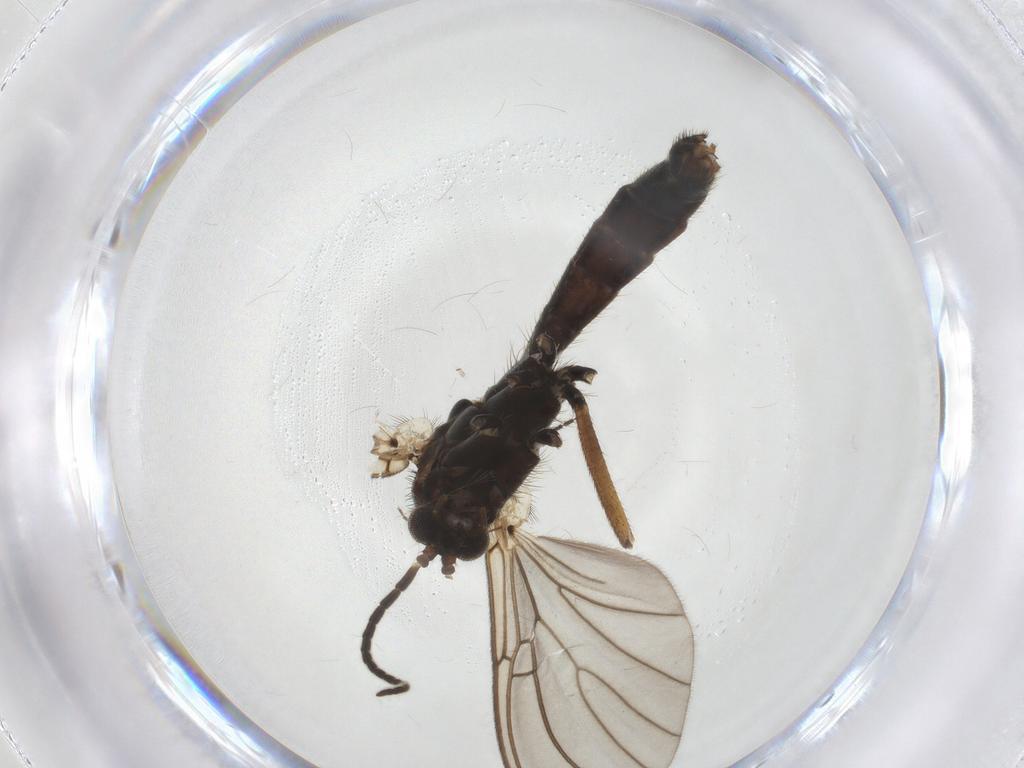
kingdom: Animalia
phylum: Arthropoda
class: Insecta
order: Diptera
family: Mycetophilidae
